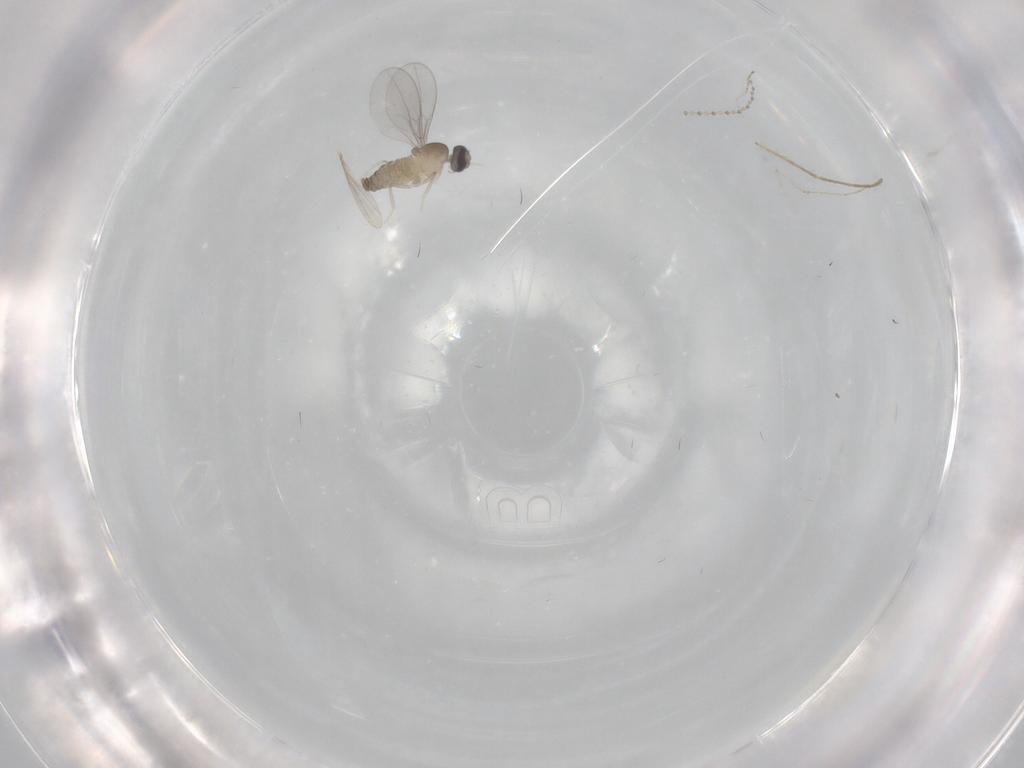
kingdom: Animalia
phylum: Arthropoda
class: Insecta
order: Diptera
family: Cecidomyiidae
